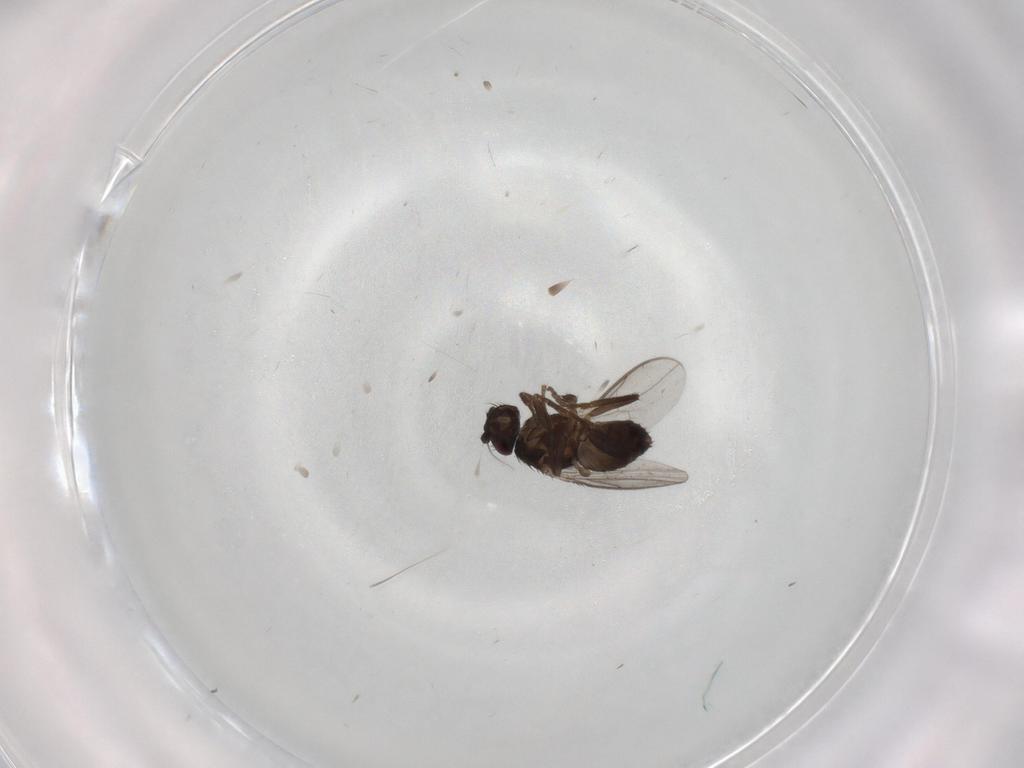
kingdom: Animalia
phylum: Arthropoda
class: Insecta
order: Diptera
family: Sphaeroceridae
